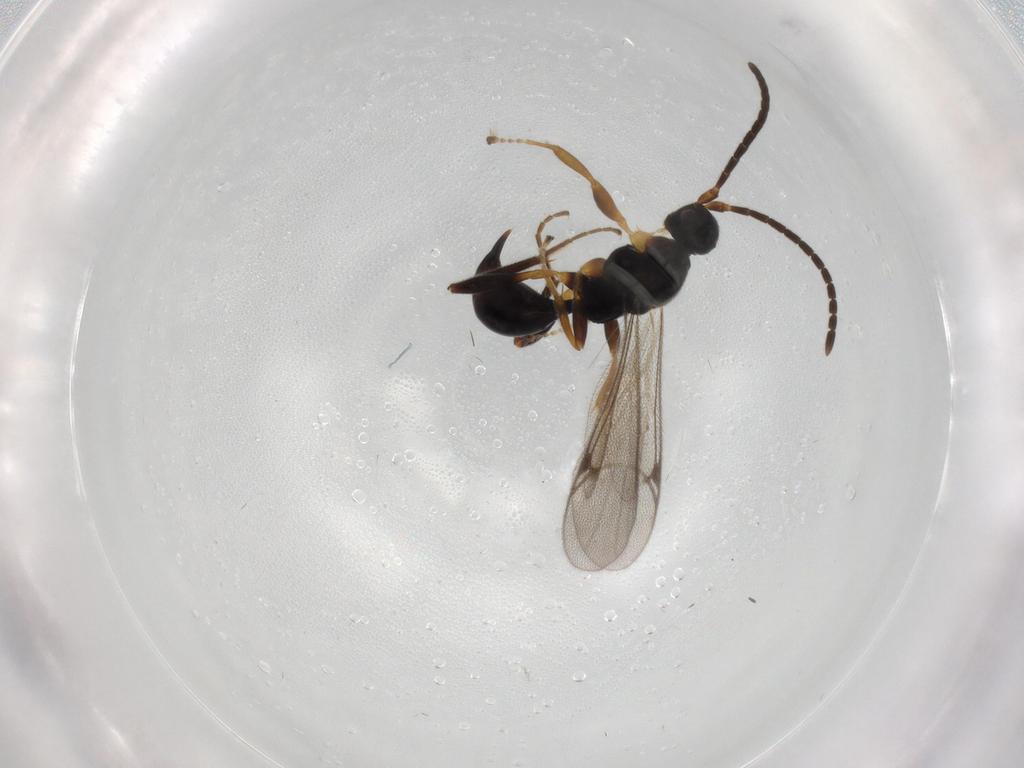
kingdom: Animalia
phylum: Arthropoda
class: Insecta
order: Hymenoptera
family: Proctotrupidae
